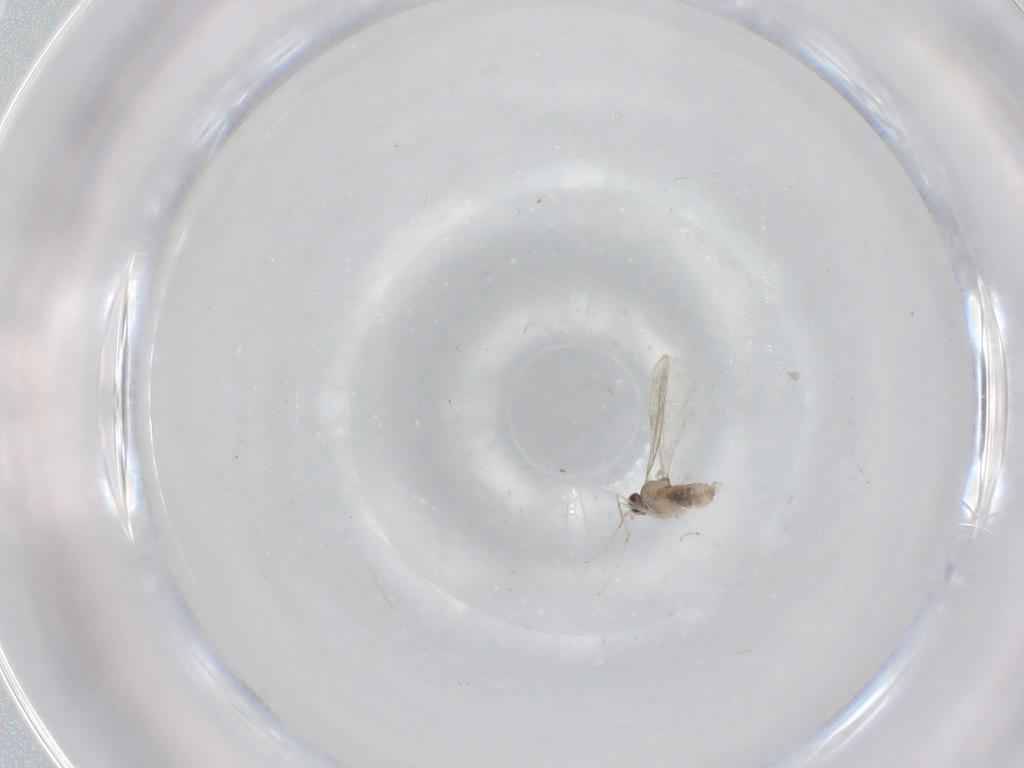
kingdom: Animalia
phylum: Arthropoda
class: Insecta
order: Diptera
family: Cecidomyiidae
